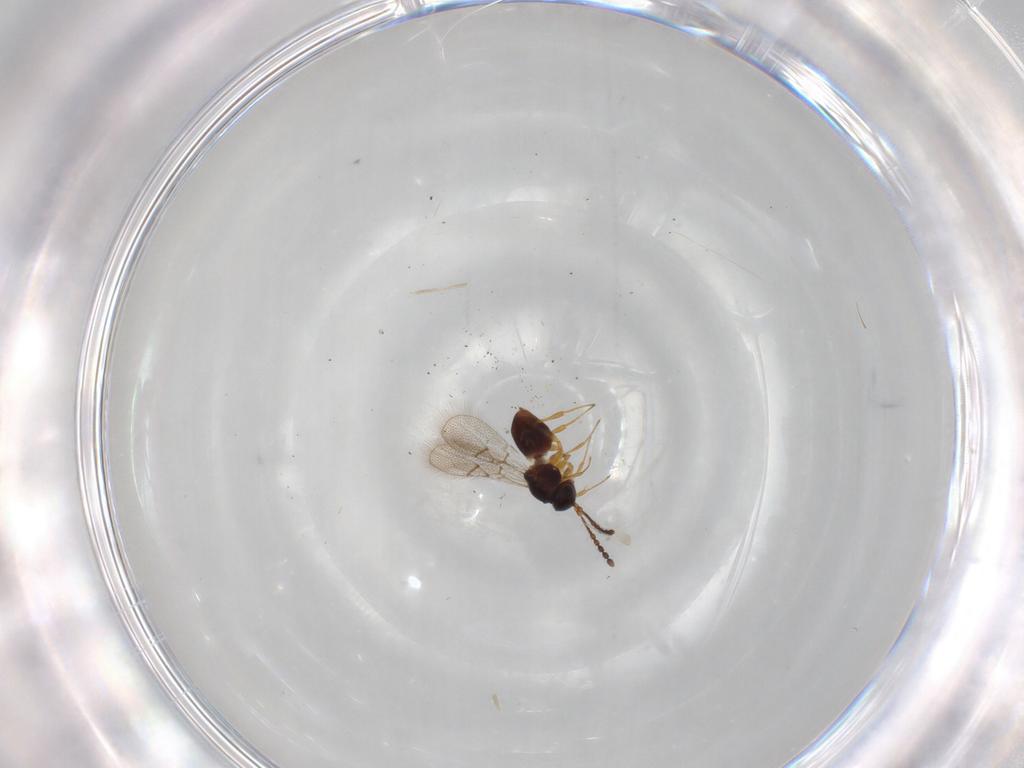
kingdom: Animalia
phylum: Arthropoda
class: Insecta
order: Hymenoptera
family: Figitidae
